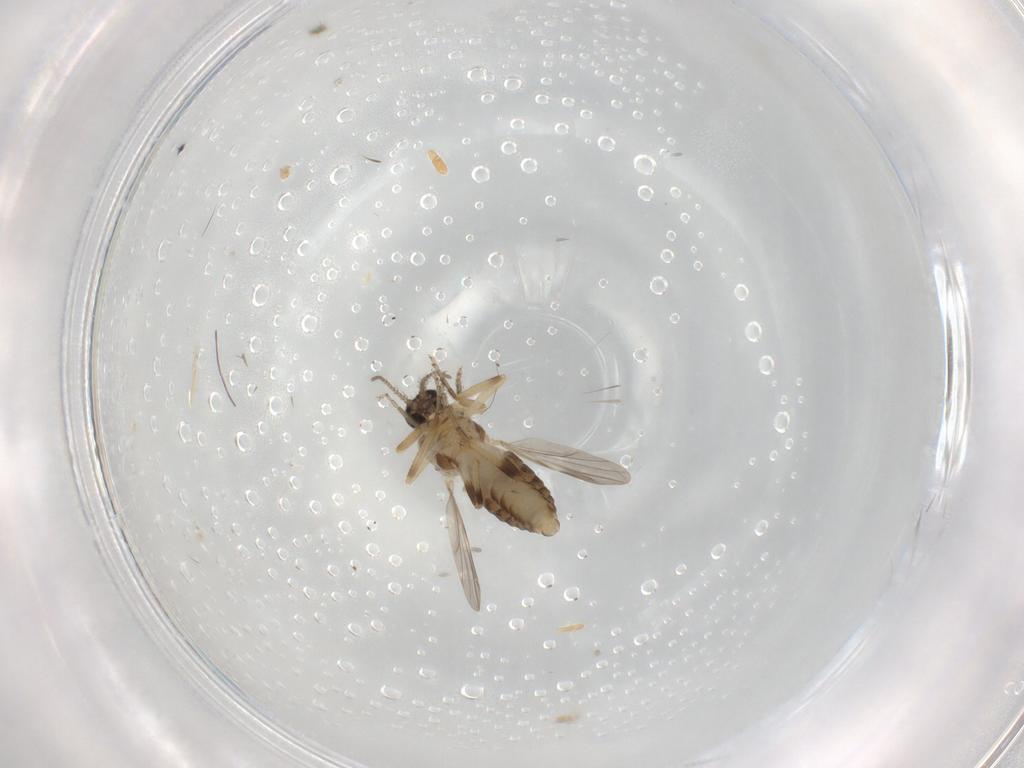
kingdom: Animalia
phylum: Arthropoda
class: Insecta
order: Diptera
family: Ceratopogonidae
